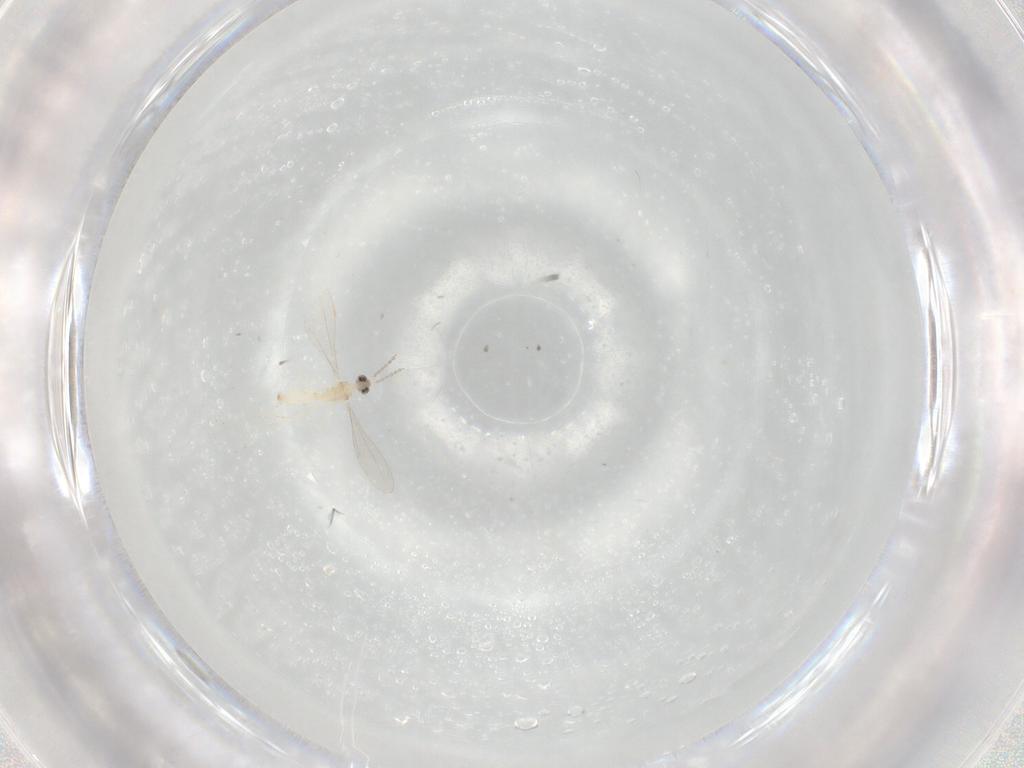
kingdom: Animalia
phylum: Arthropoda
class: Insecta
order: Diptera
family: Cecidomyiidae
